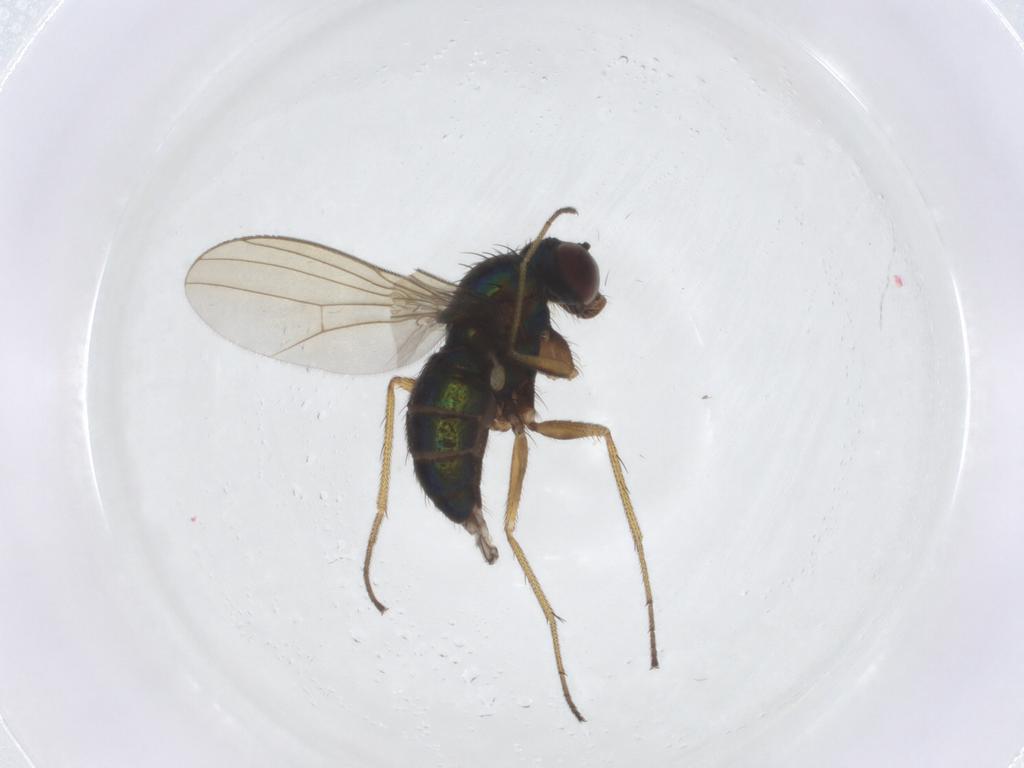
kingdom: Animalia
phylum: Arthropoda
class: Insecta
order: Diptera
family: Dolichopodidae
